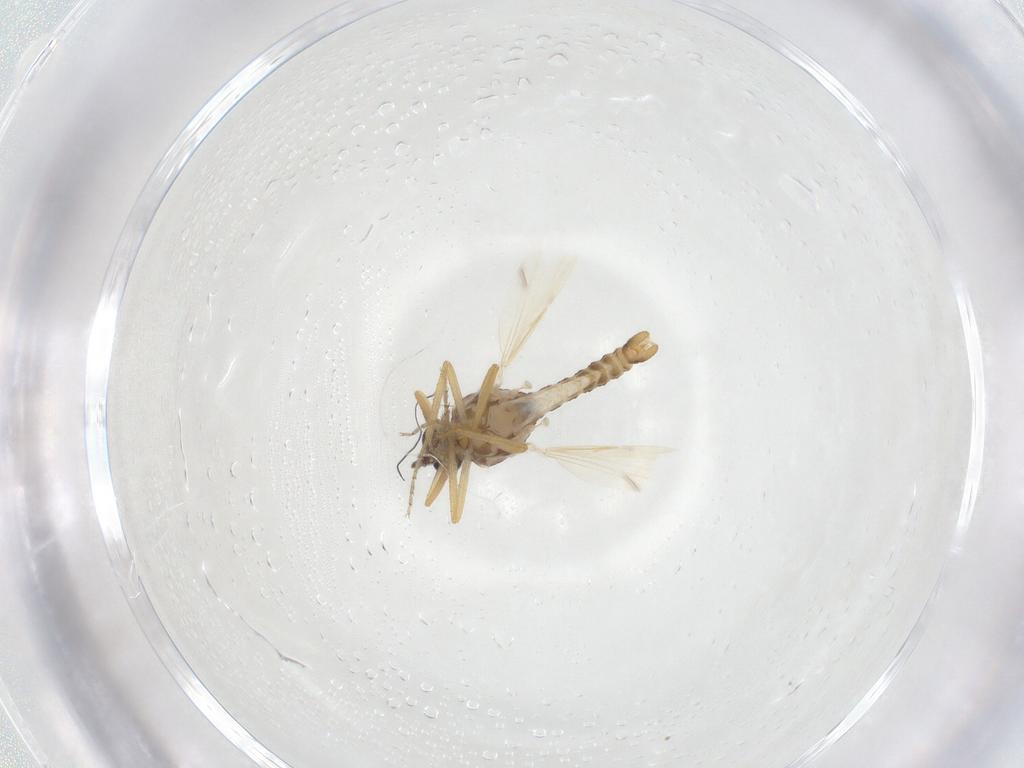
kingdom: Animalia
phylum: Arthropoda
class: Insecta
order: Diptera
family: Ceratopogonidae
